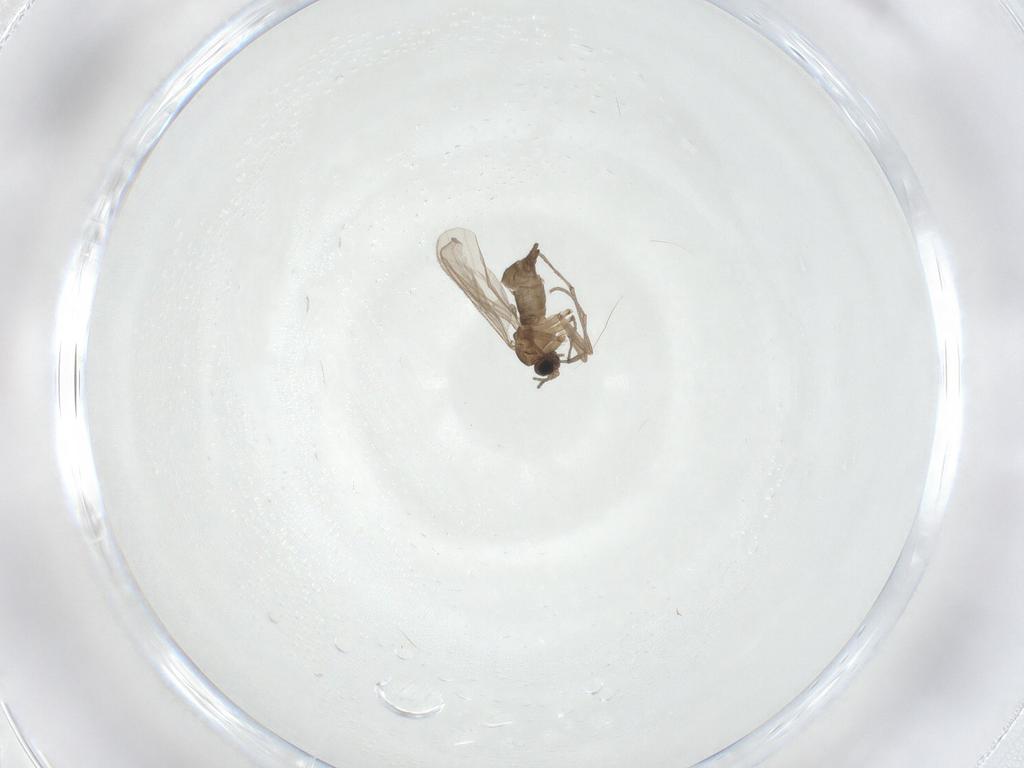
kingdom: Animalia
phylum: Arthropoda
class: Insecta
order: Diptera
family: Sciaridae
